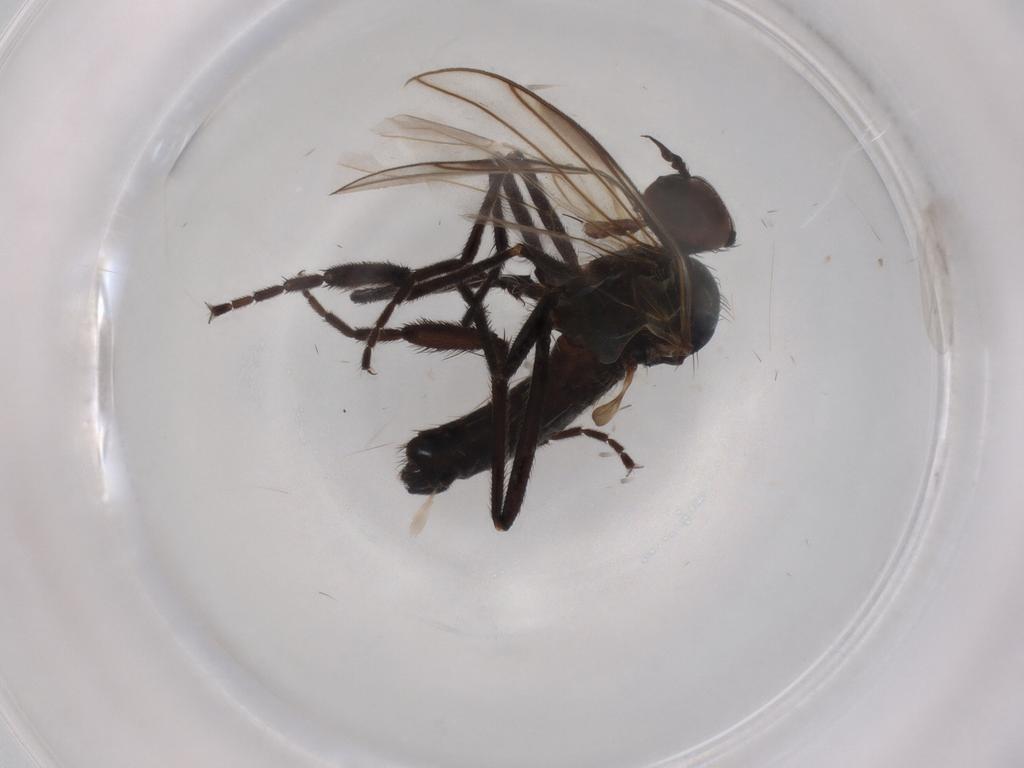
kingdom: Animalia
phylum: Arthropoda
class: Insecta
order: Diptera
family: Empididae
